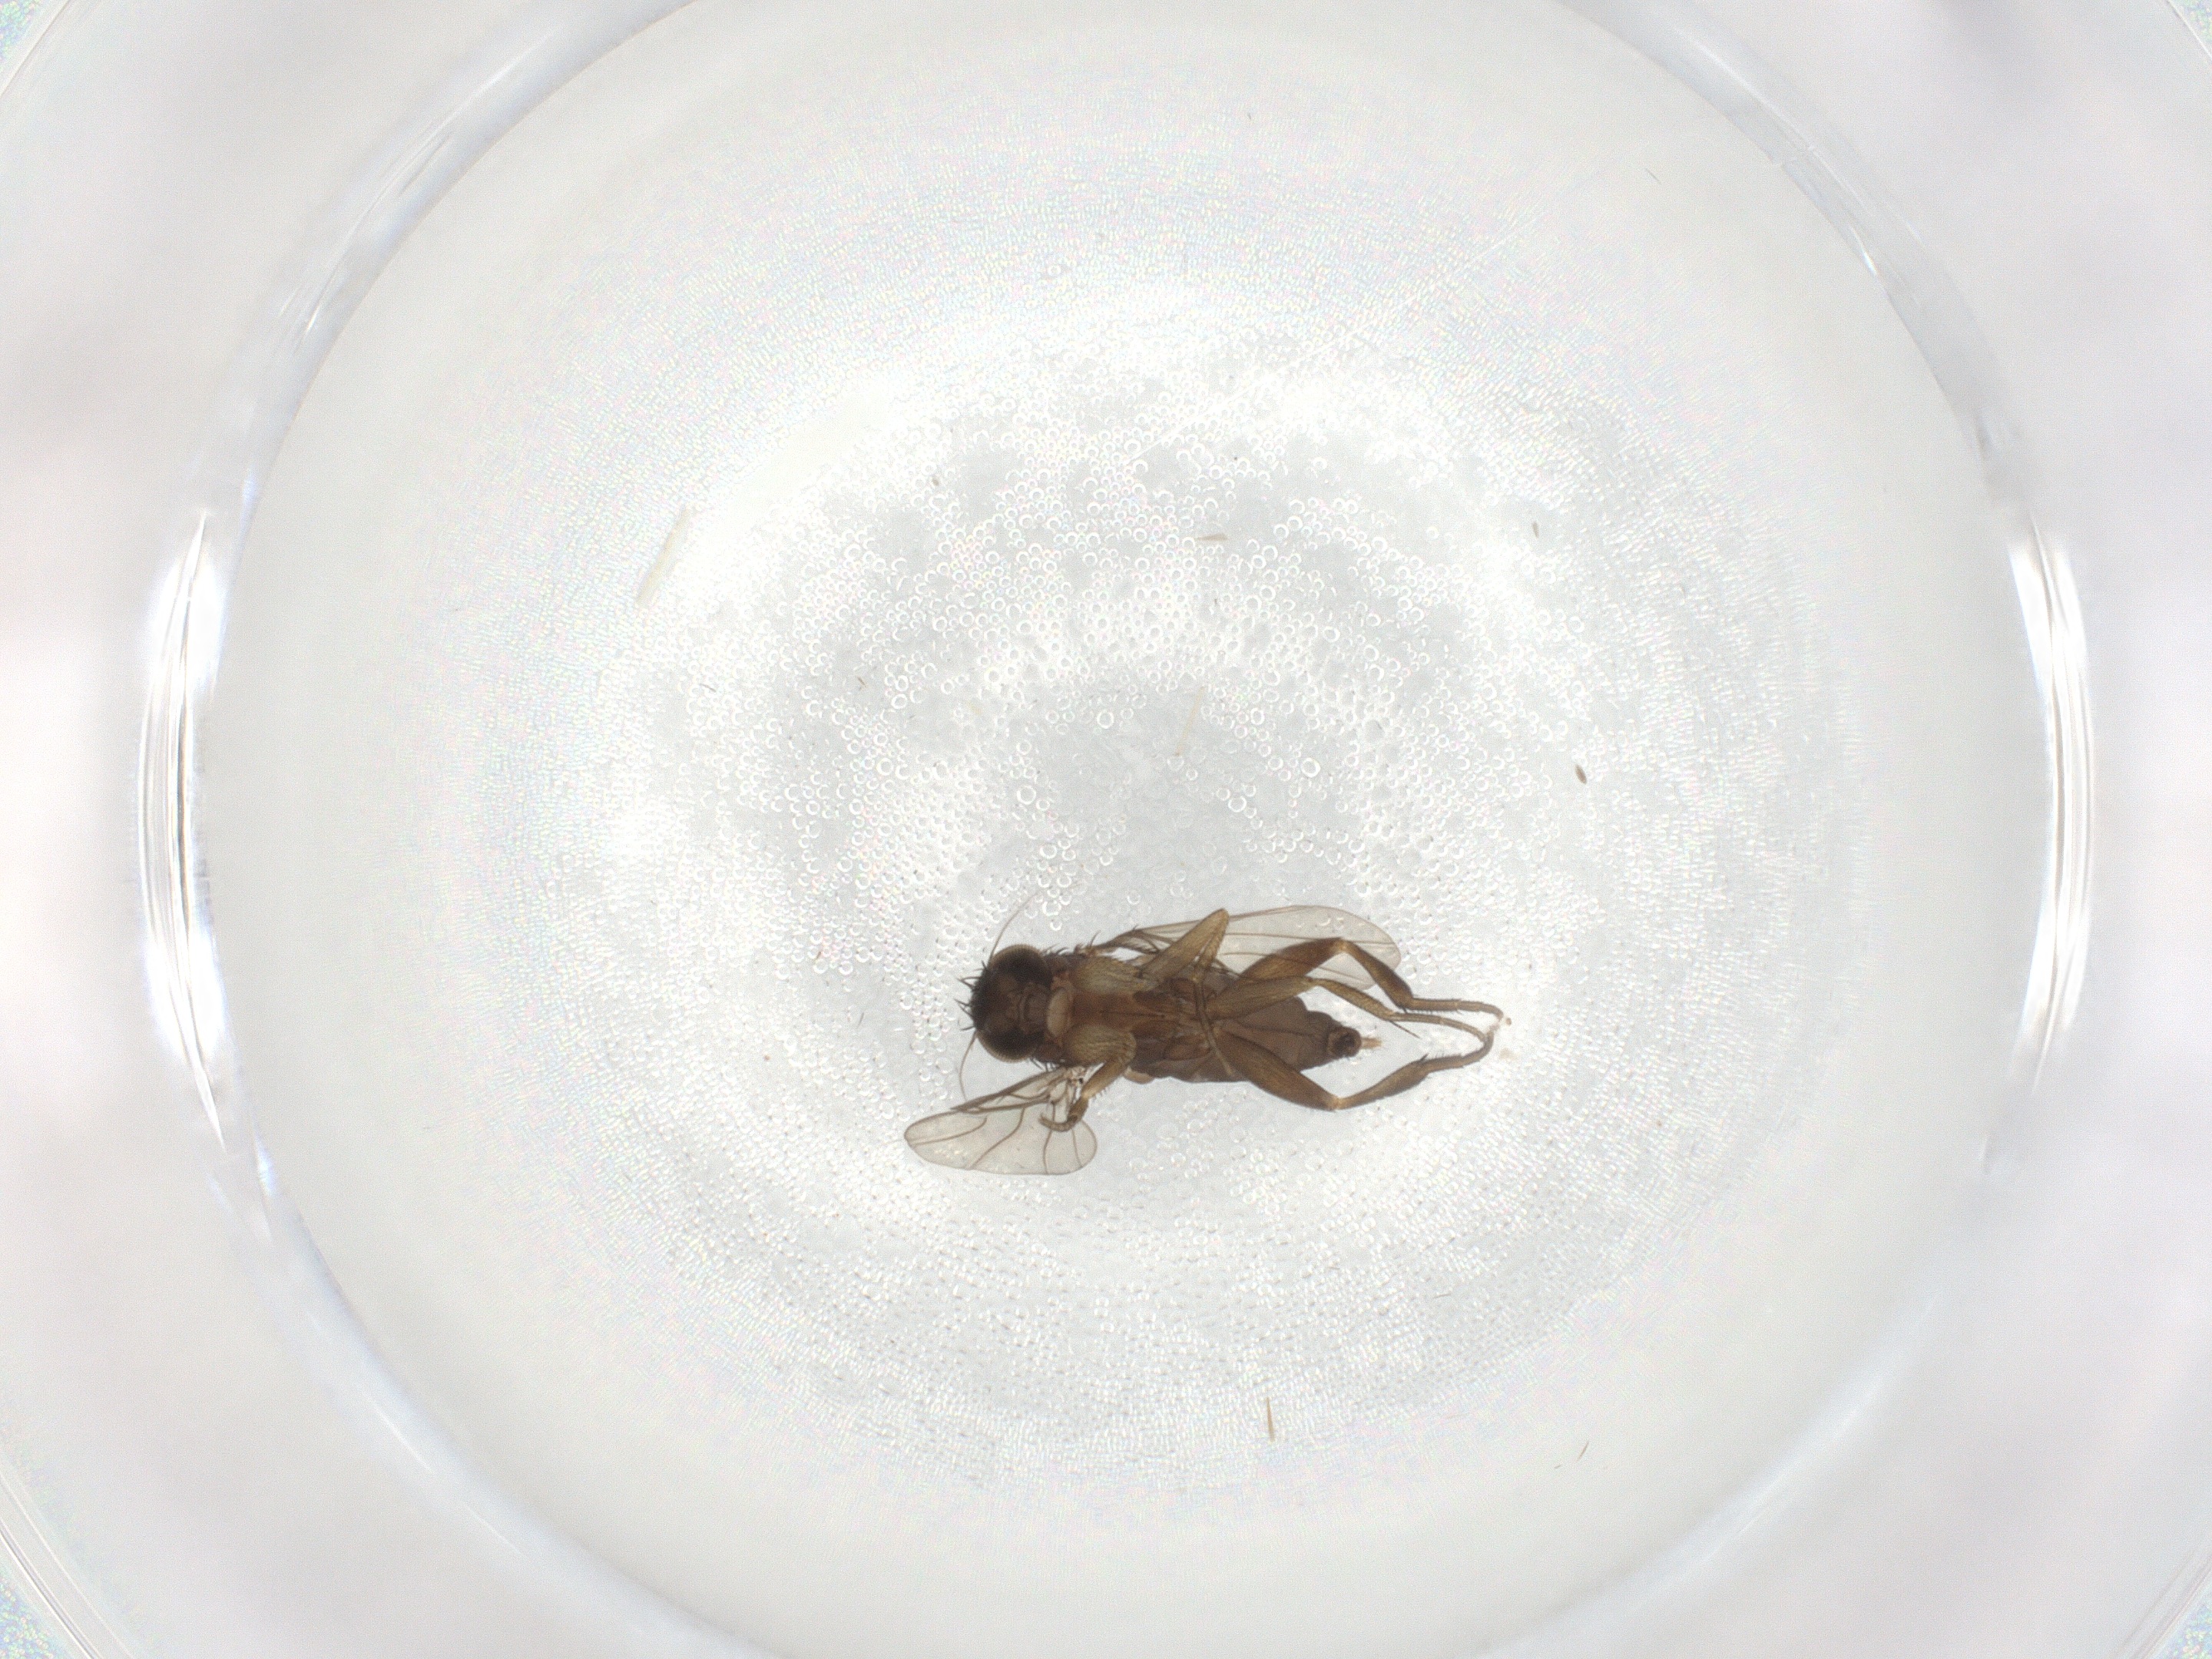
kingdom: Animalia
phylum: Arthropoda
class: Insecta
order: Diptera
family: Phoridae
